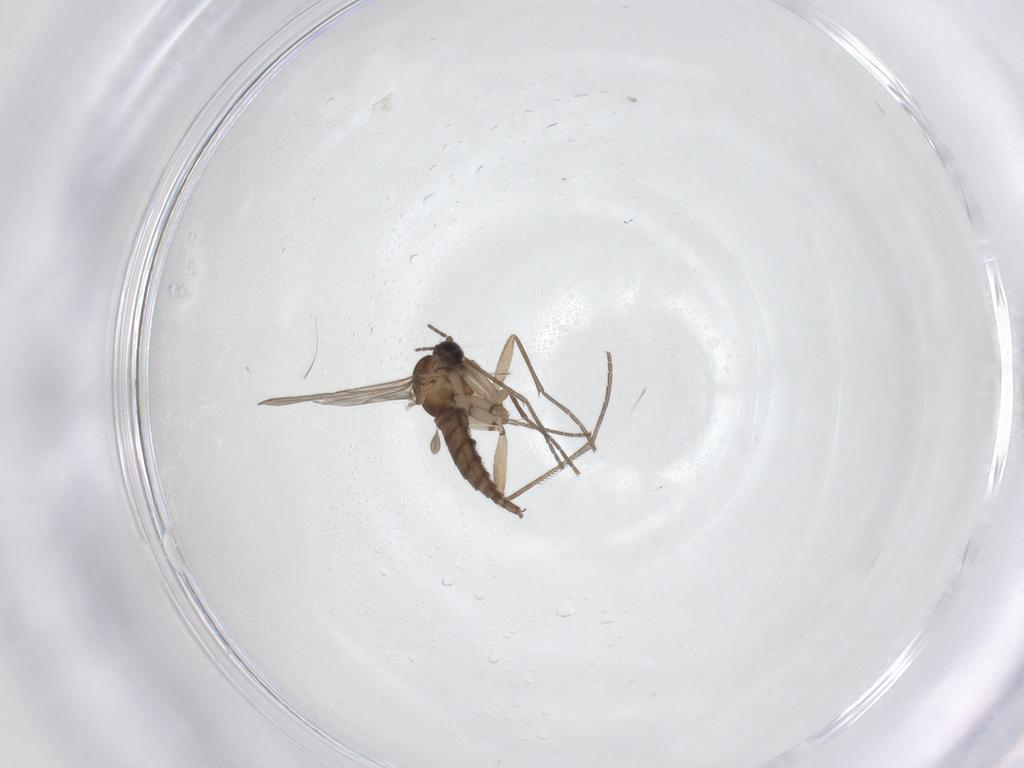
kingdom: Animalia
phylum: Arthropoda
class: Insecta
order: Diptera
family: Sciaridae
